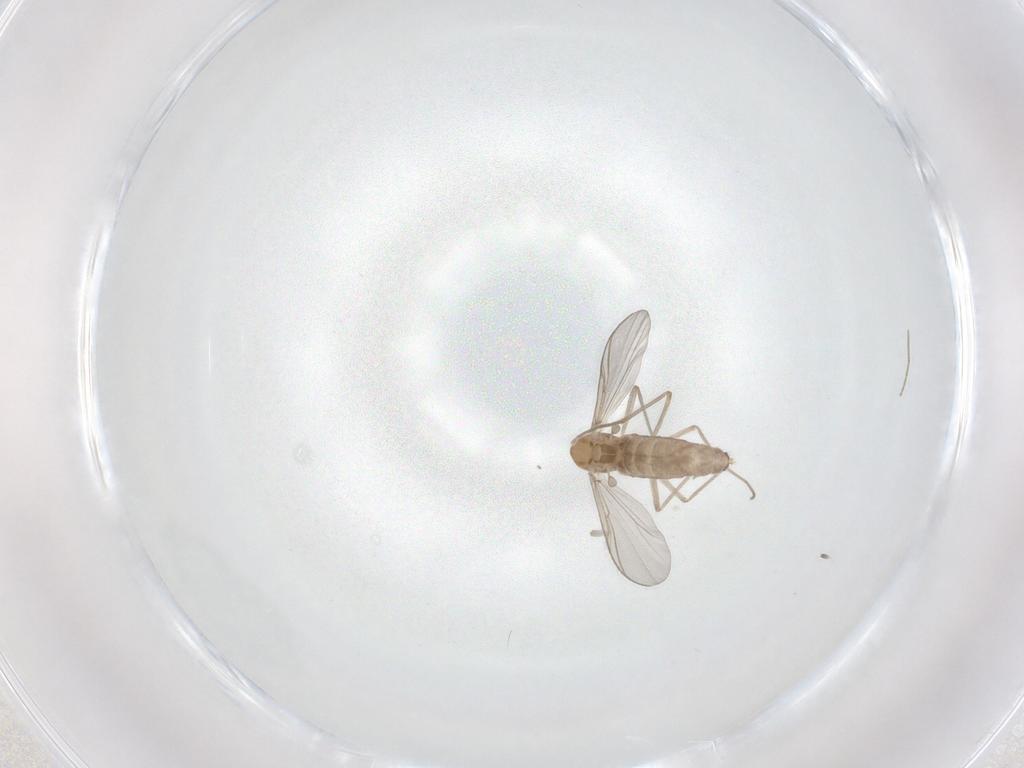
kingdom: Animalia
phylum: Arthropoda
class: Insecta
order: Diptera
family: Chironomidae
